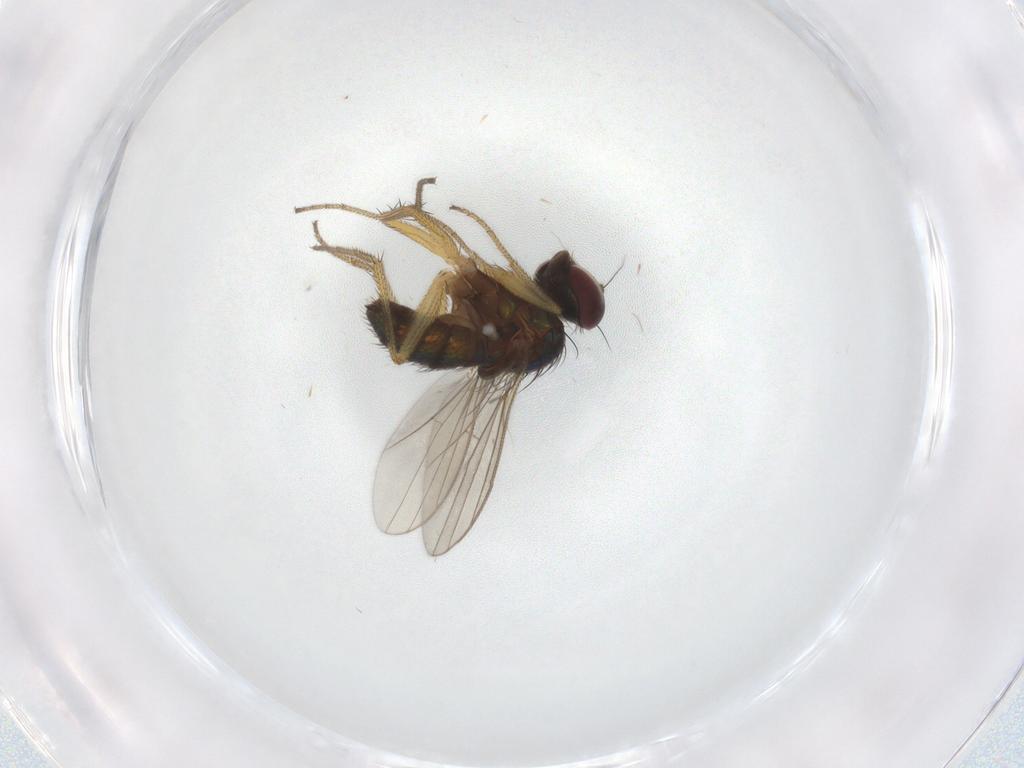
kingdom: Animalia
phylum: Arthropoda
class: Insecta
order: Diptera
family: Dolichopodidae
